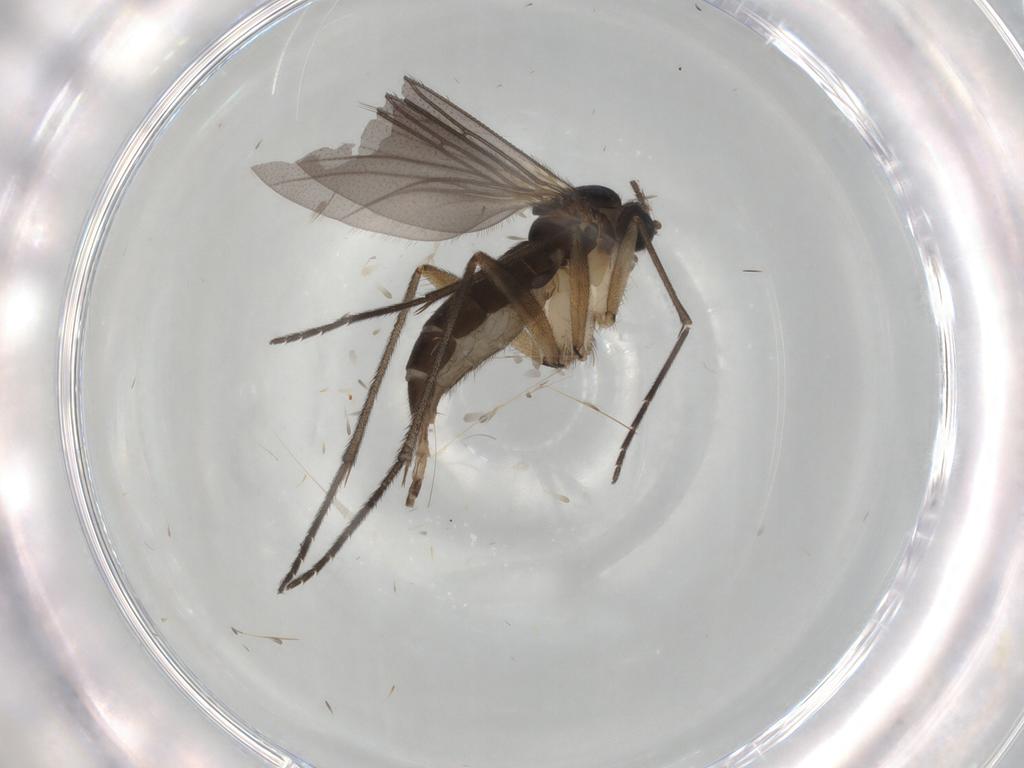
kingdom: Animalia
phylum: Arthropoda
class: Insecta
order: Diptera
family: Sciaridae
